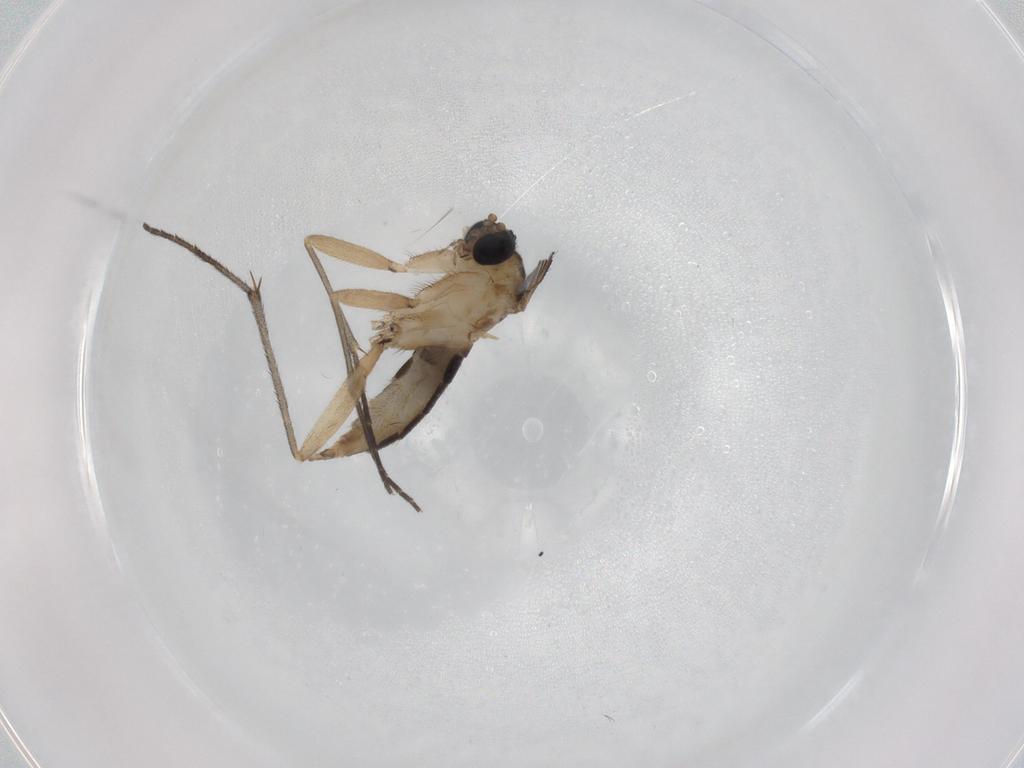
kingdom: Animalia
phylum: Arthropoda
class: Insecta
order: Diptera
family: Sciaridae
